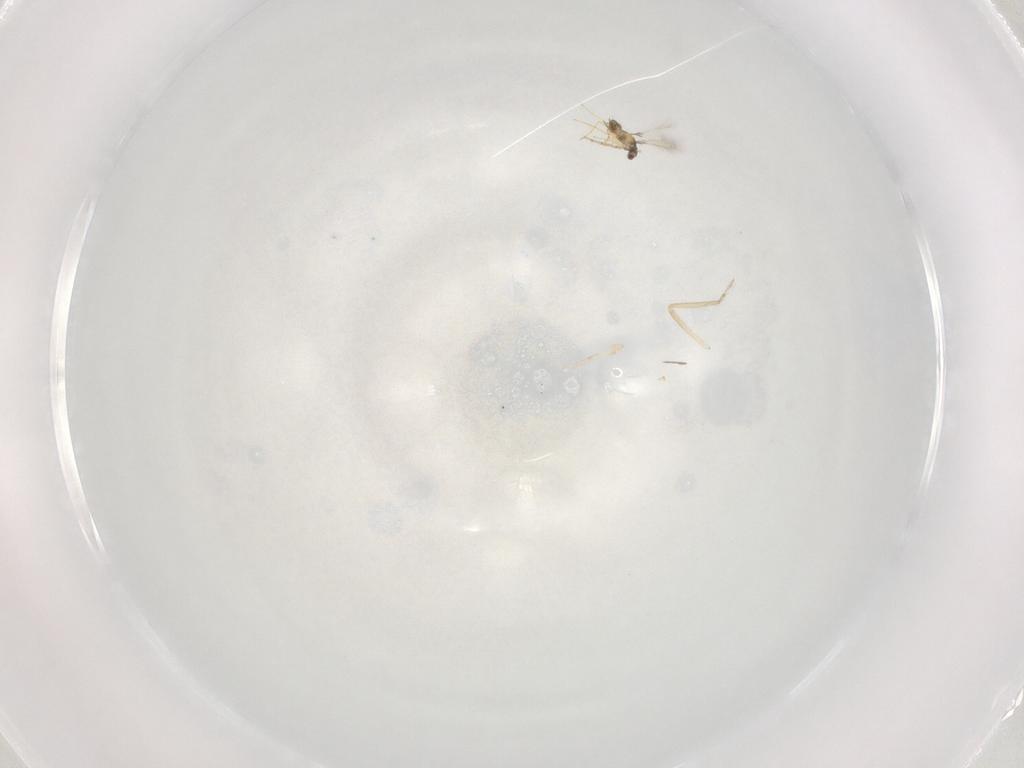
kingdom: Animalia
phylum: Arthropoda
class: Insecta
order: Hymenoptera
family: Mymaridae
